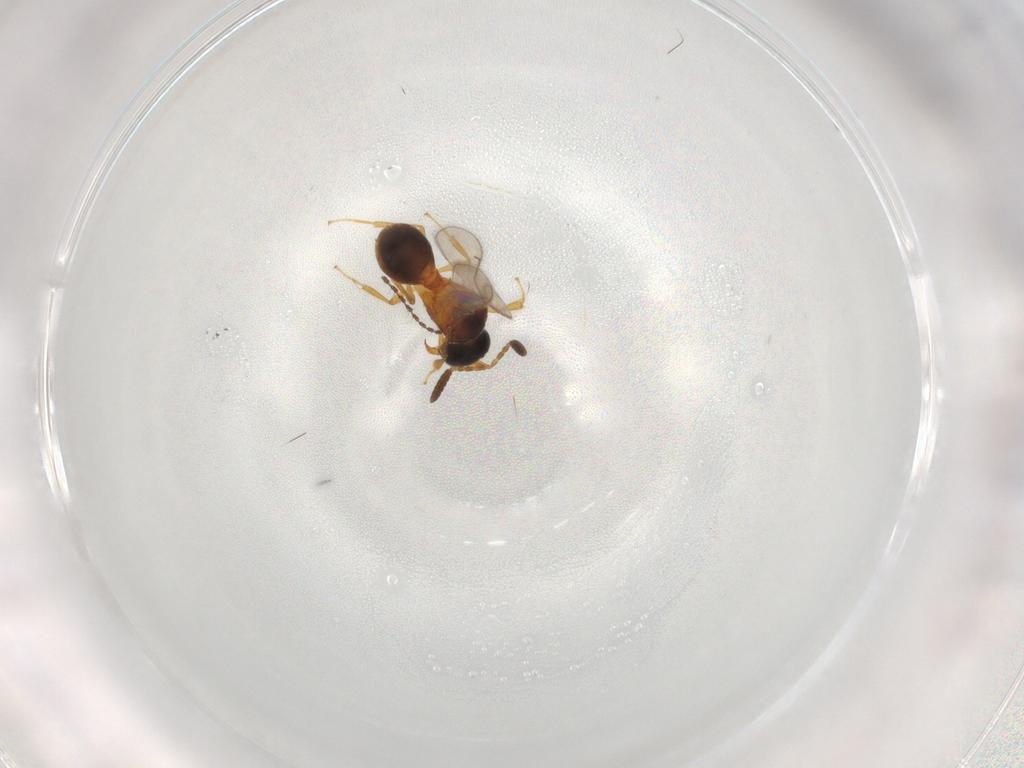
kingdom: Animalia
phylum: Arthropoda
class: Insecta
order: Hymenoptera
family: Scelionidae
